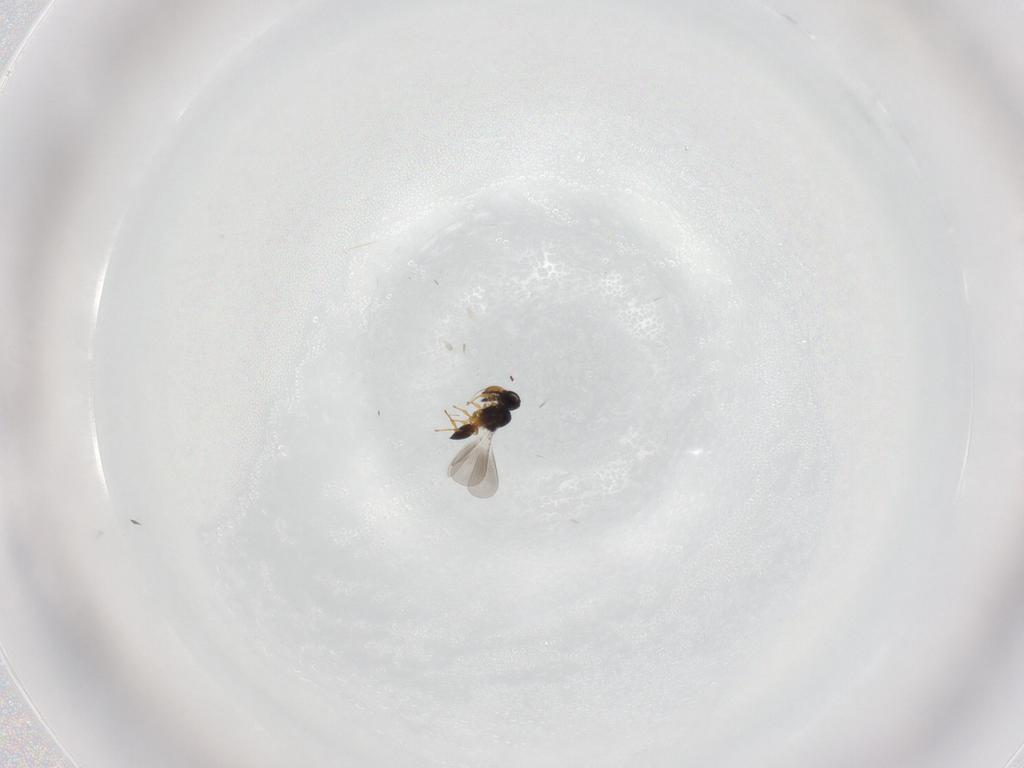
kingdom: Animalia
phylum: Arthropoda
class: Insecta
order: Hymenoptera
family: Platygastridae
